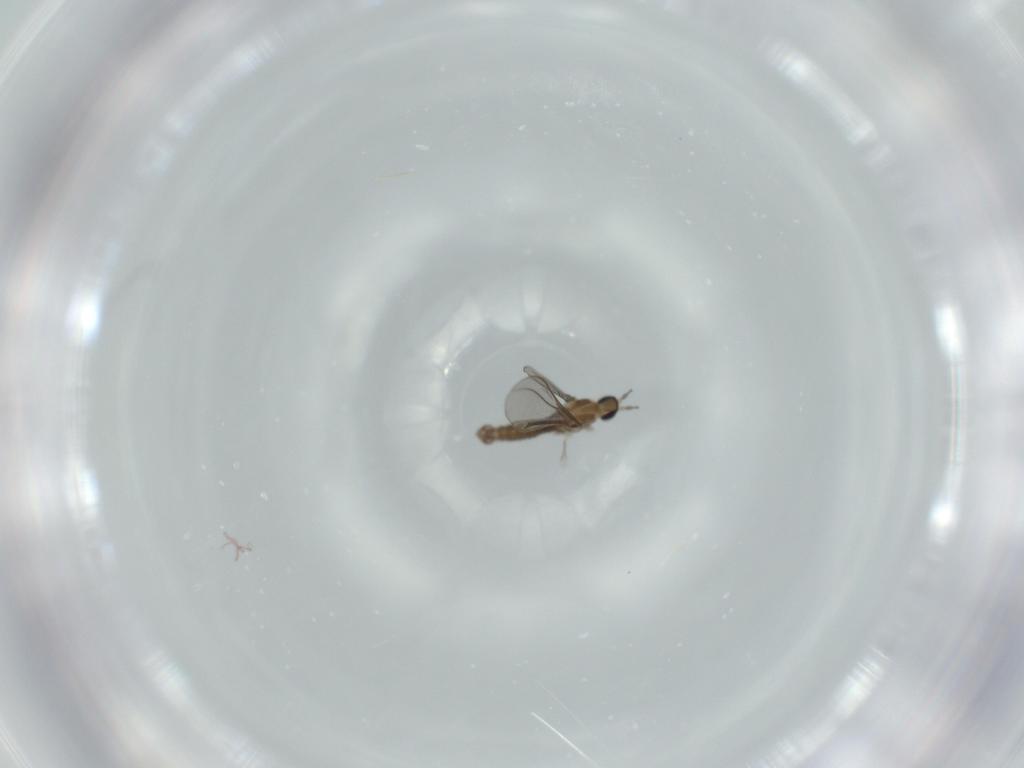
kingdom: Animalia
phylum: Arthropoda
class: Insecta
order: Diptera
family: Cecidomyiidae
